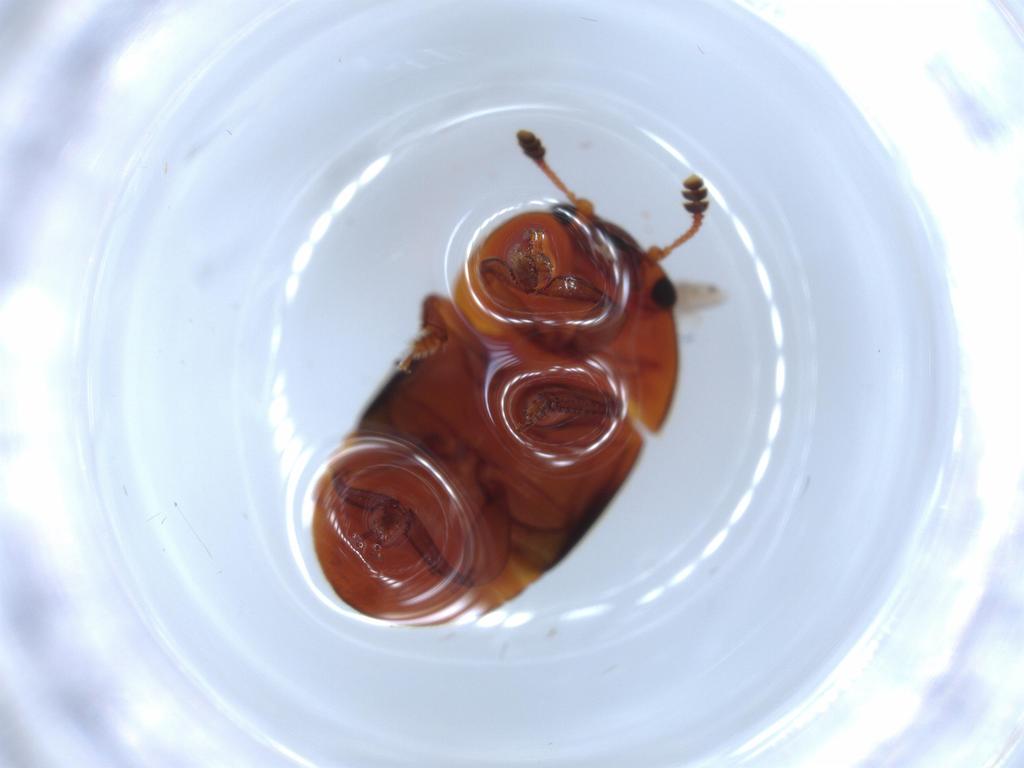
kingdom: Animalia
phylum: Arthropoda
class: Insecta
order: Coleoptera
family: Nitidulidae
